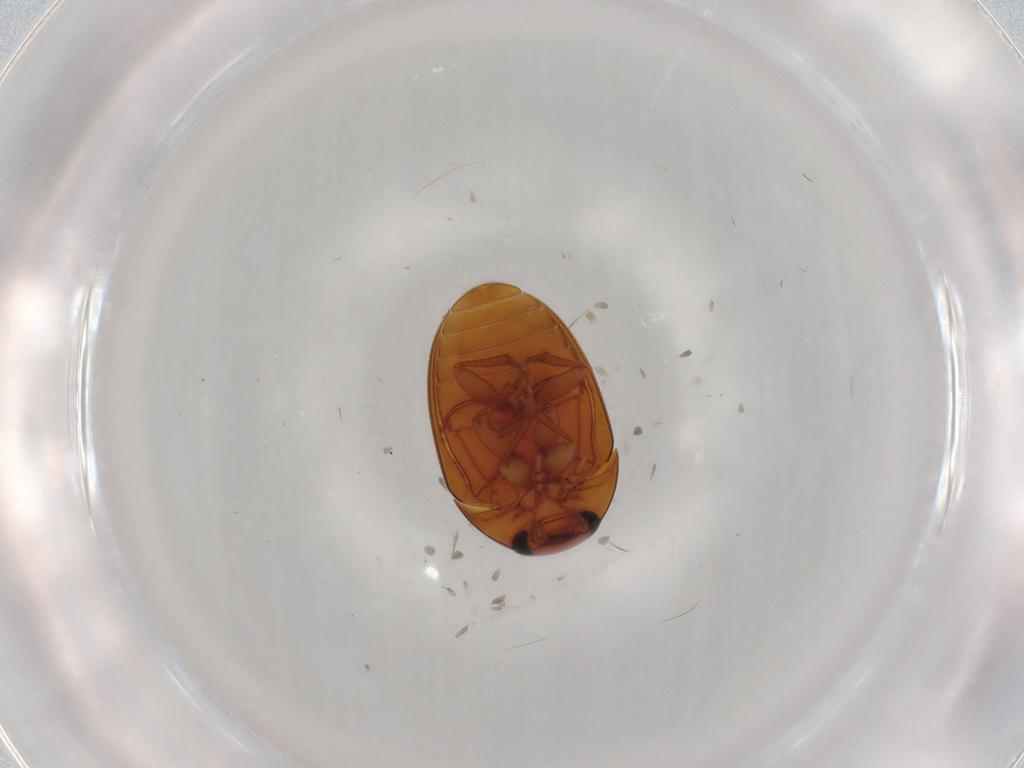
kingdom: Animalia
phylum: Arthropoda
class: Insecta
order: Coleoptera
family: Phalacridae
